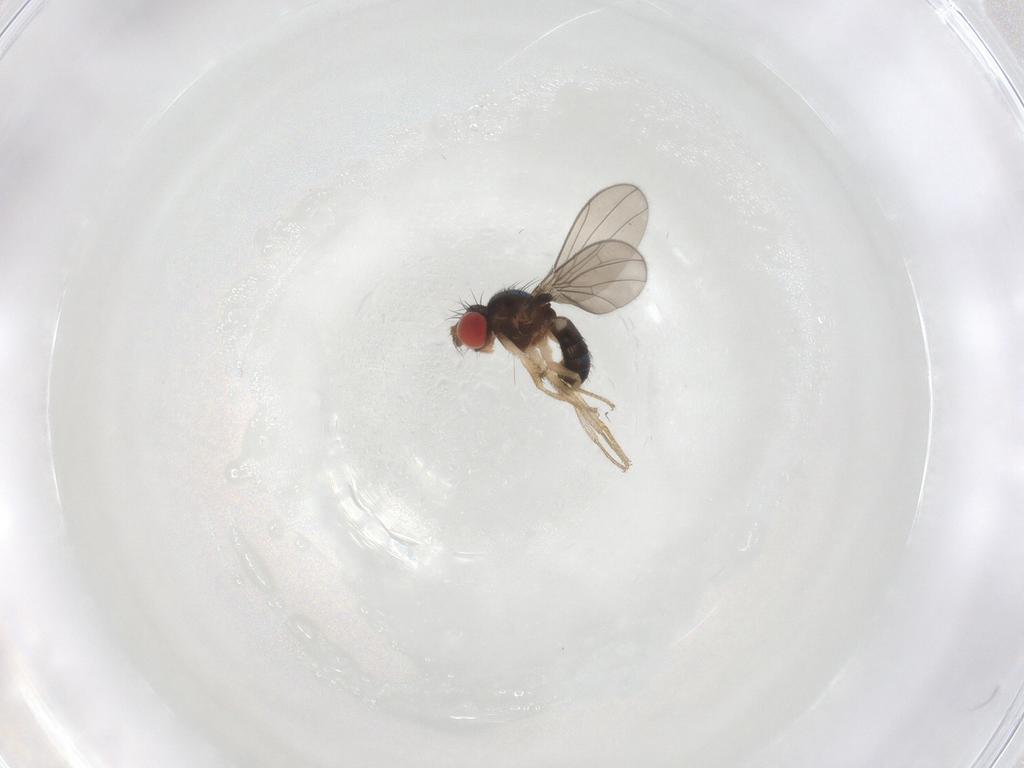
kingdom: Animalia
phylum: Arthropoda
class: Insecta
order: Diptera
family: Drosophilidae
